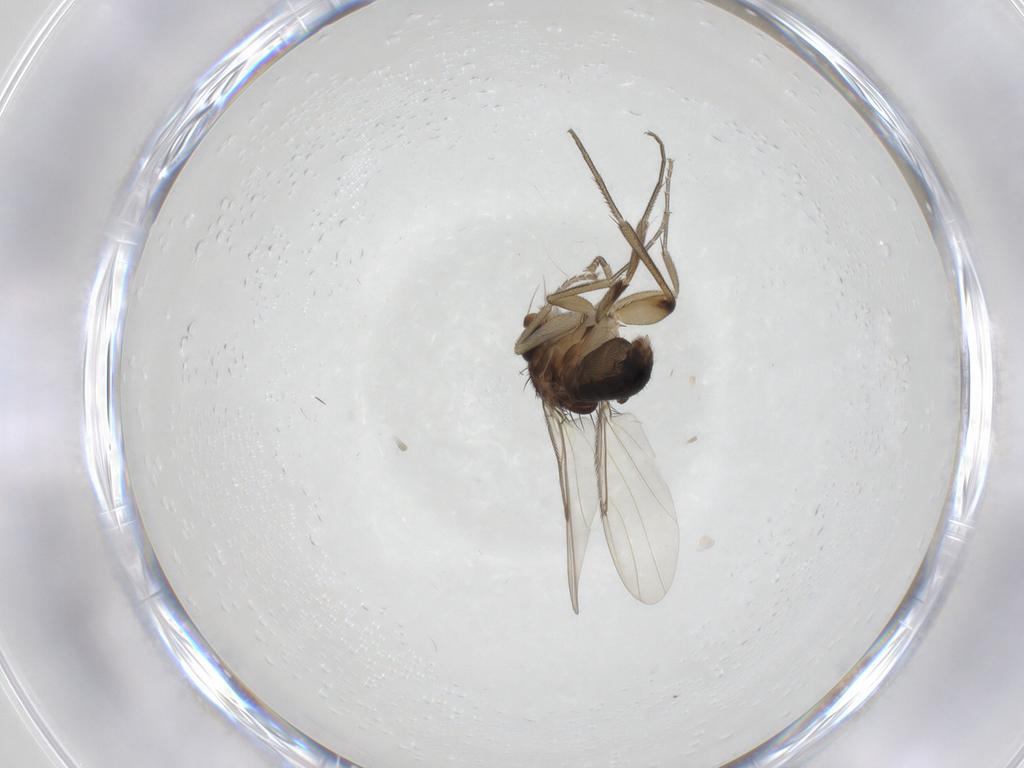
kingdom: Animalia
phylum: Arthropoda
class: Insecta
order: Diptera
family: Phoridae
